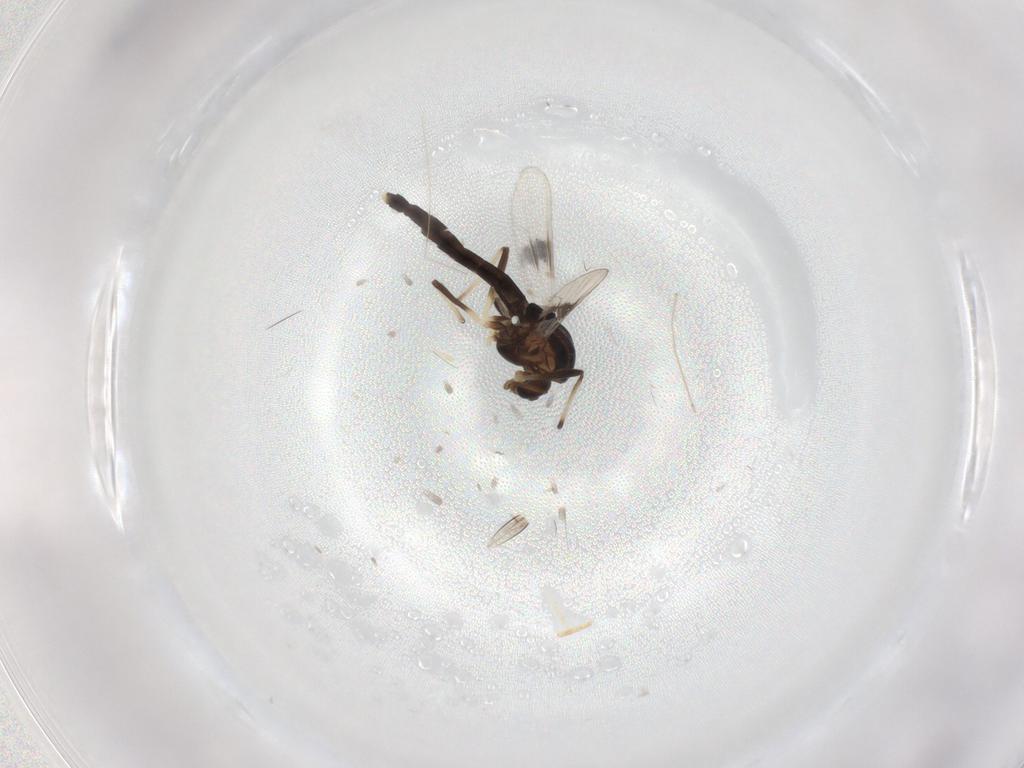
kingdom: Animalia
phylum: Arthropoda
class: Insecta
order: Diptera
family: Chironomidae
